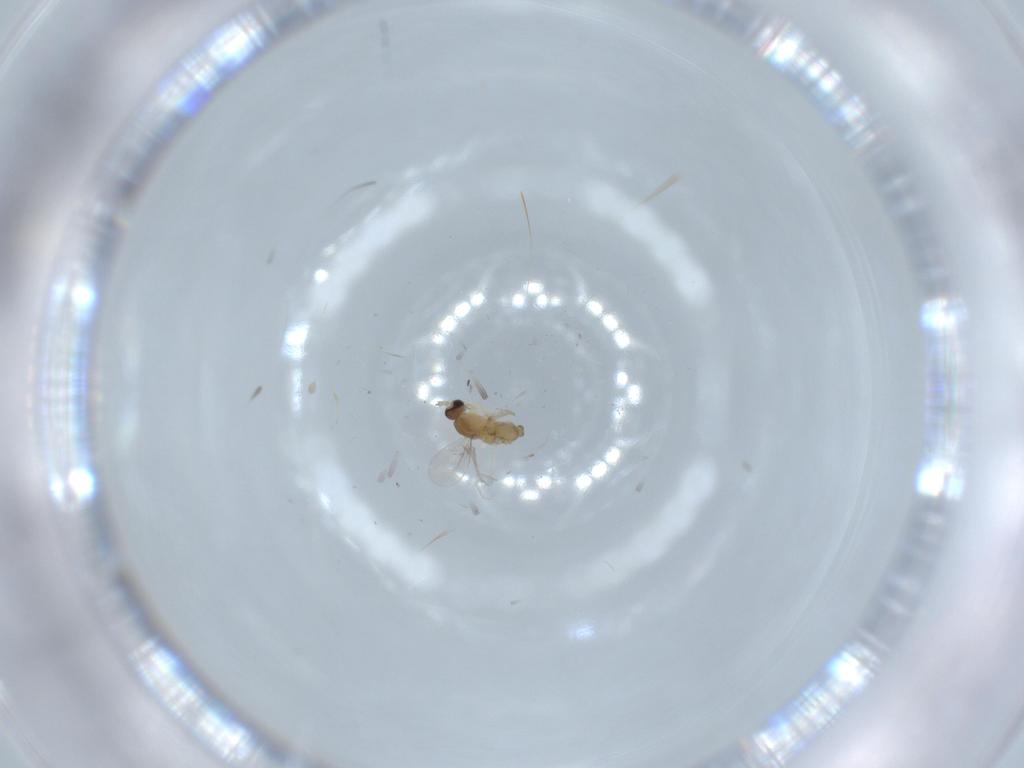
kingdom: Animalia
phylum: Arthropoda
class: Insecta
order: Diptera
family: Cecidomyiidae
